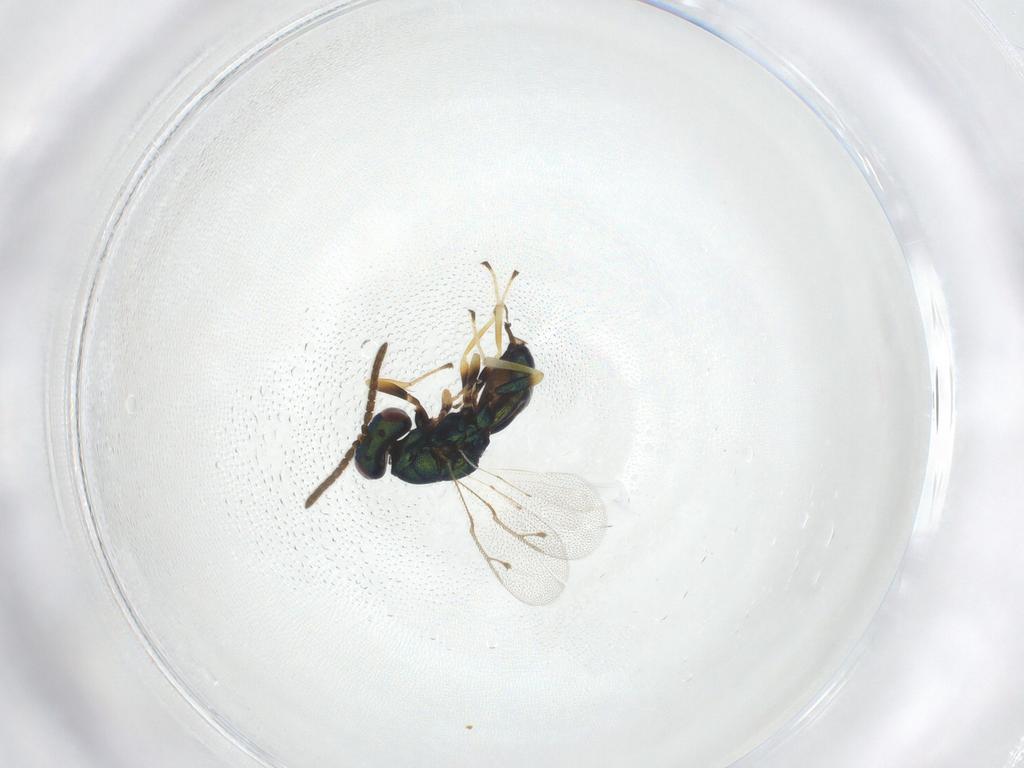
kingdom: Animalia
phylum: Arthropoda
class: Insecta
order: Hymenoptera
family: Pteromalidae
